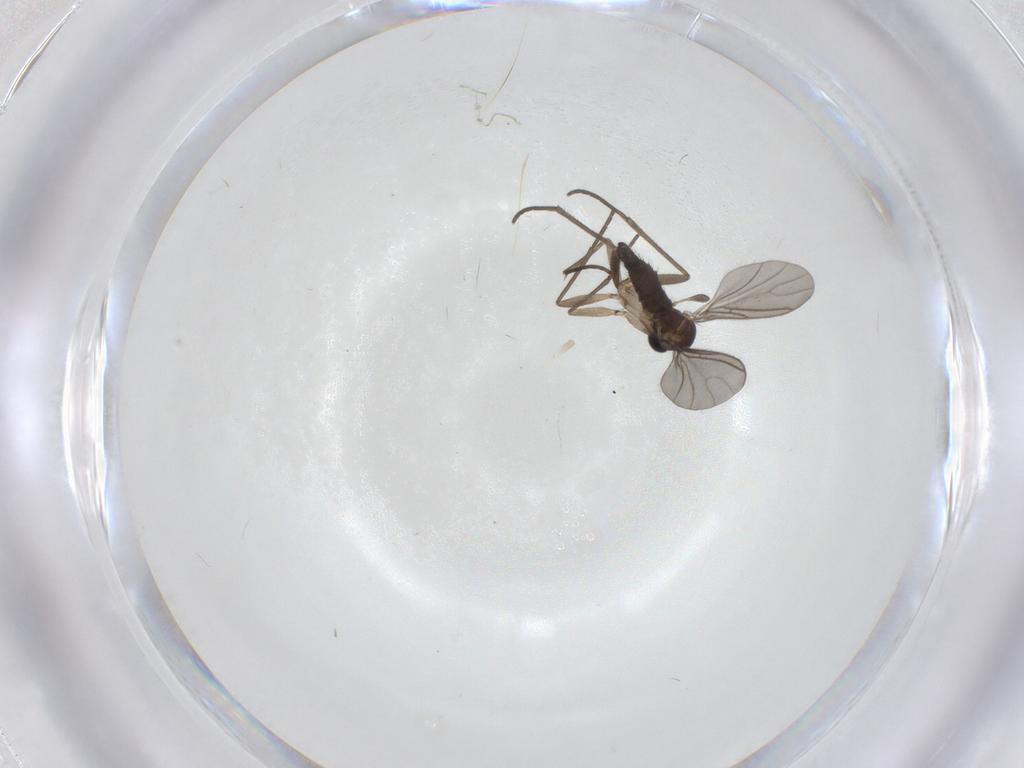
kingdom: Animalia
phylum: Arthropoda
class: Insecta
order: Diptera
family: Sciaridae
